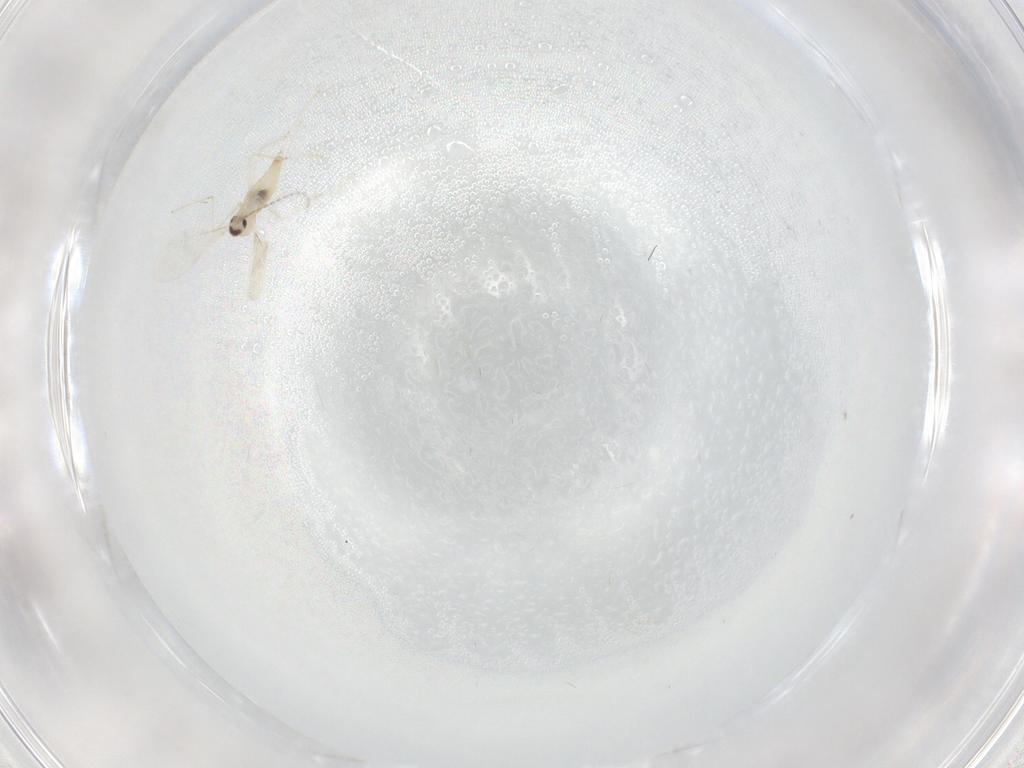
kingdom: Animalia
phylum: Arthropoda
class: Insecta
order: Diptera
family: Cecidomyiidae
